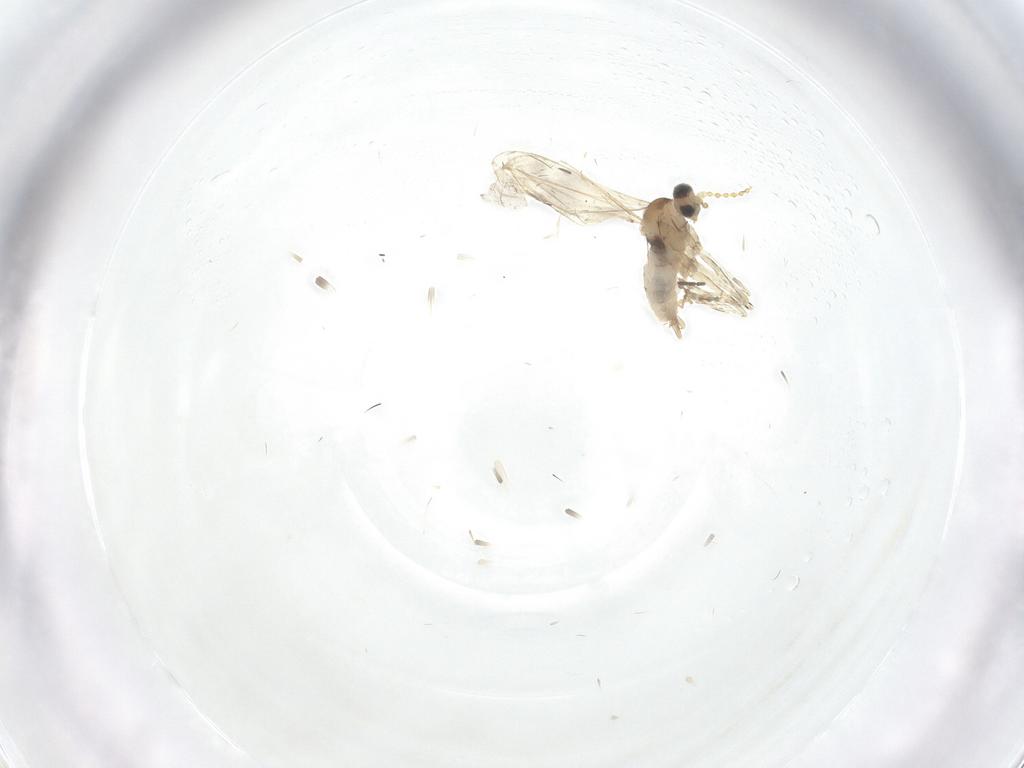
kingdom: Animalia
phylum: Arthropoda
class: Insecta
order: Diptera
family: Cecidomyiidae
